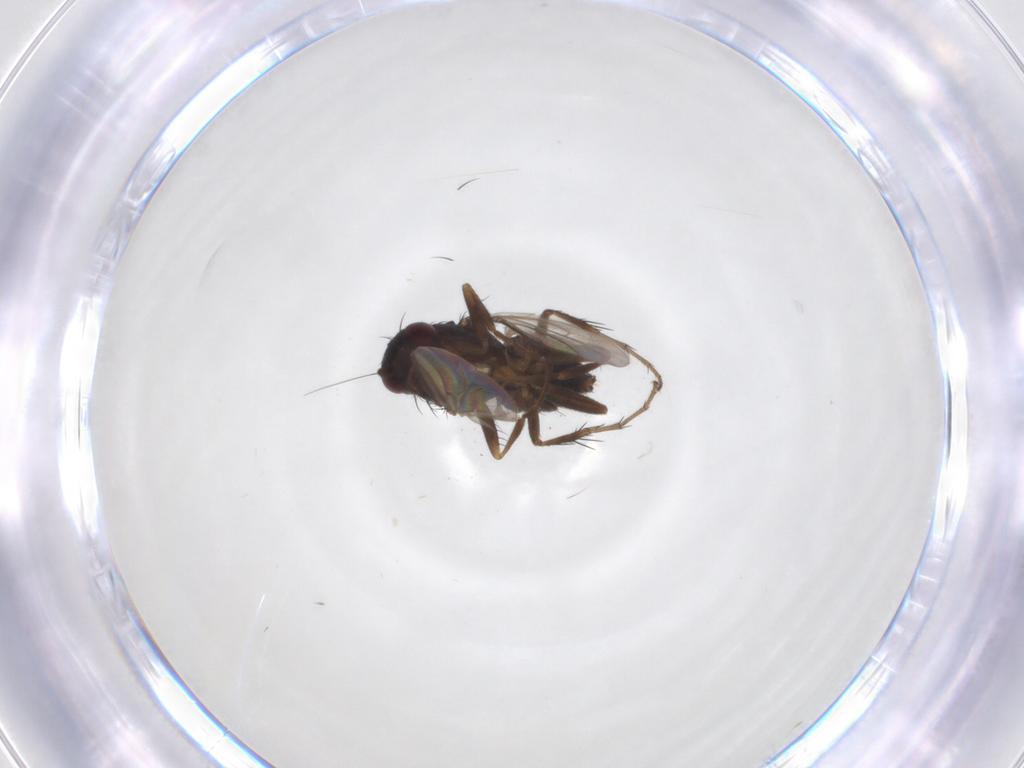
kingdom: Animalia
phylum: Arthropoda
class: Insecta
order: Diptera
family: Sphaeroceridae
